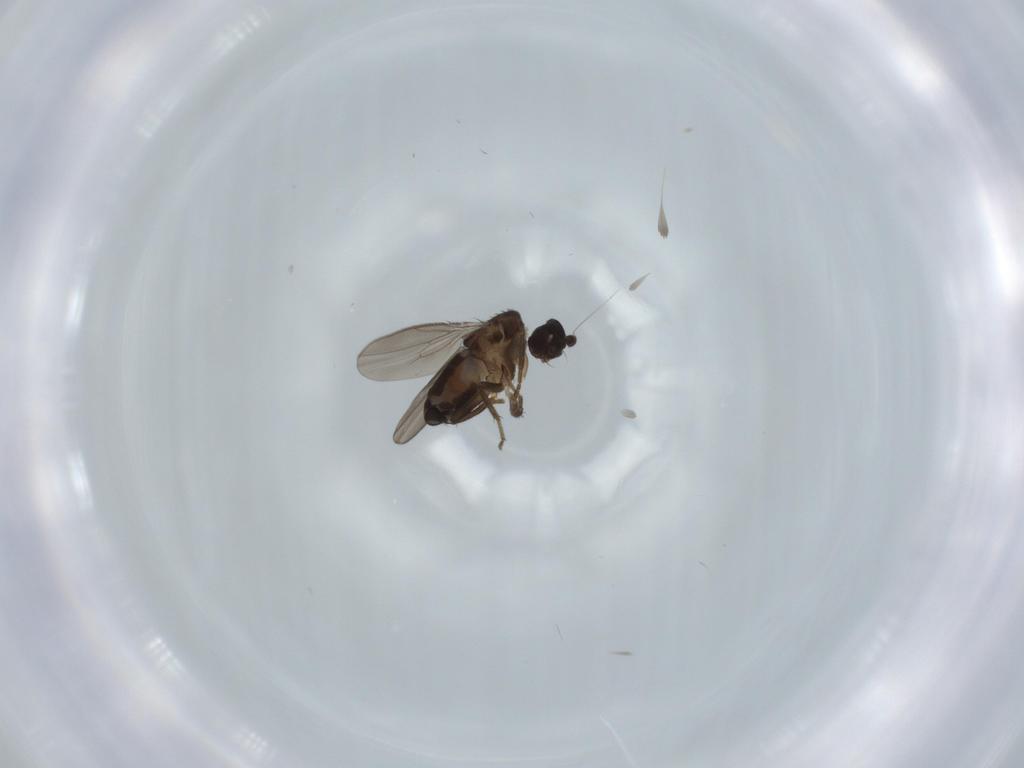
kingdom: Animalia
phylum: Arthropoda
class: Insecta
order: Diptera
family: Sphaeroceridae
